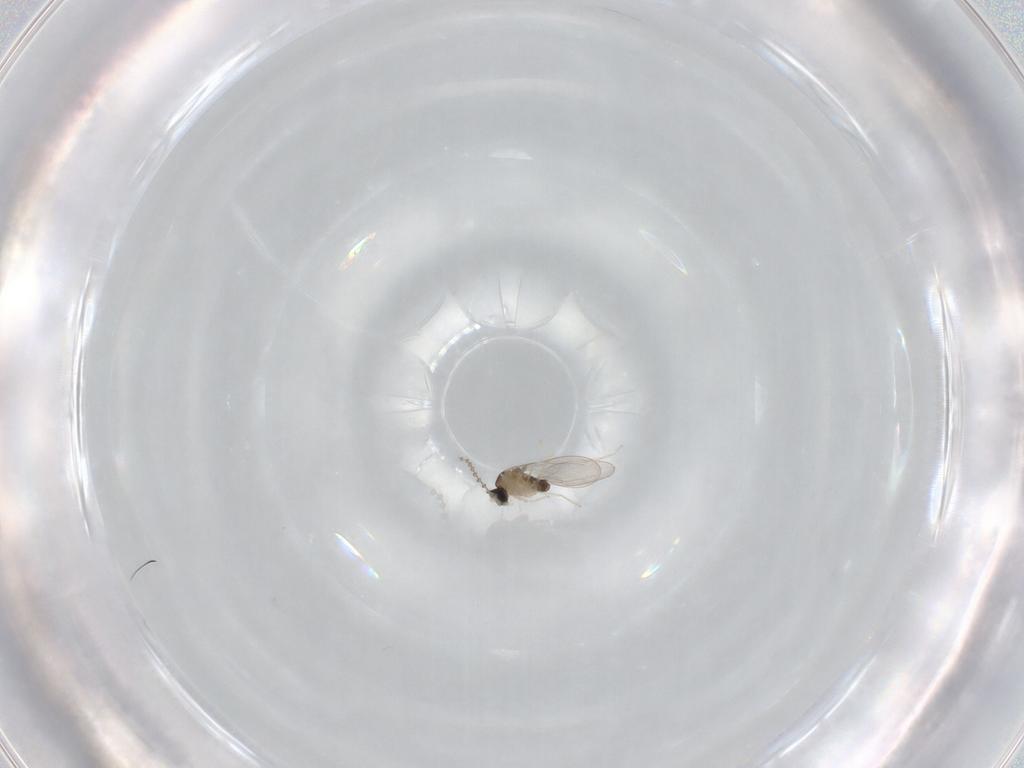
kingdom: Animalia
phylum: Arthropoda
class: Insecta
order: Diptera
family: Cecidomyiidae
